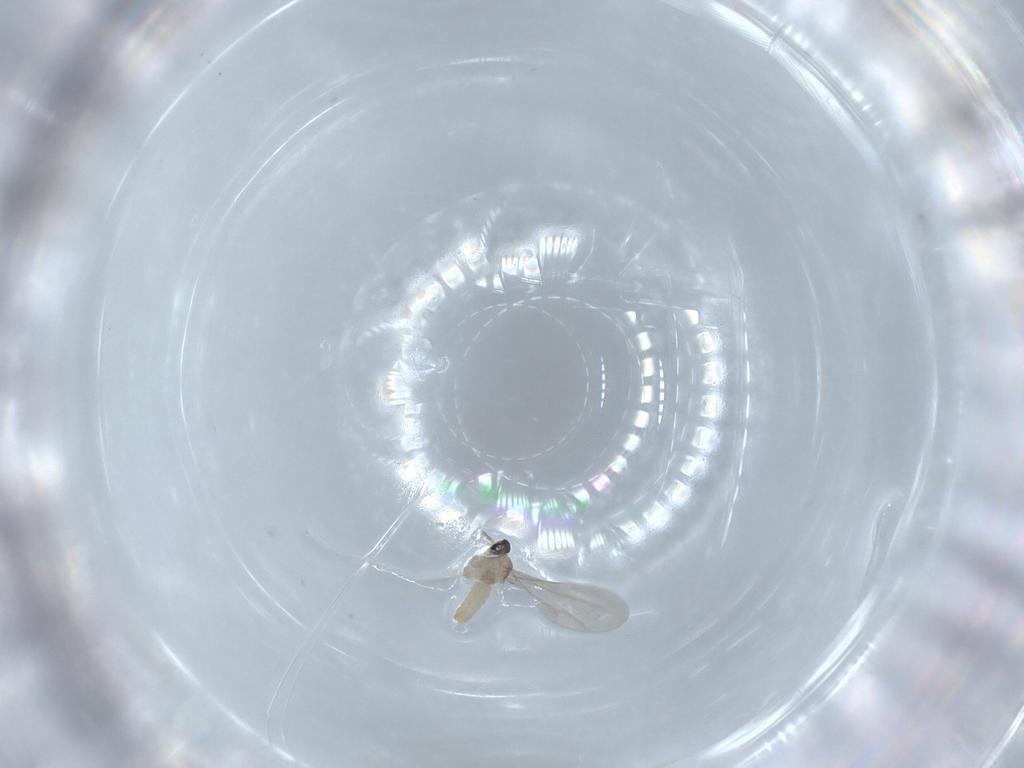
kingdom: Animalia
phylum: Arthropoda
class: Insecta
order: Diptera
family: Cecidomyiidae
